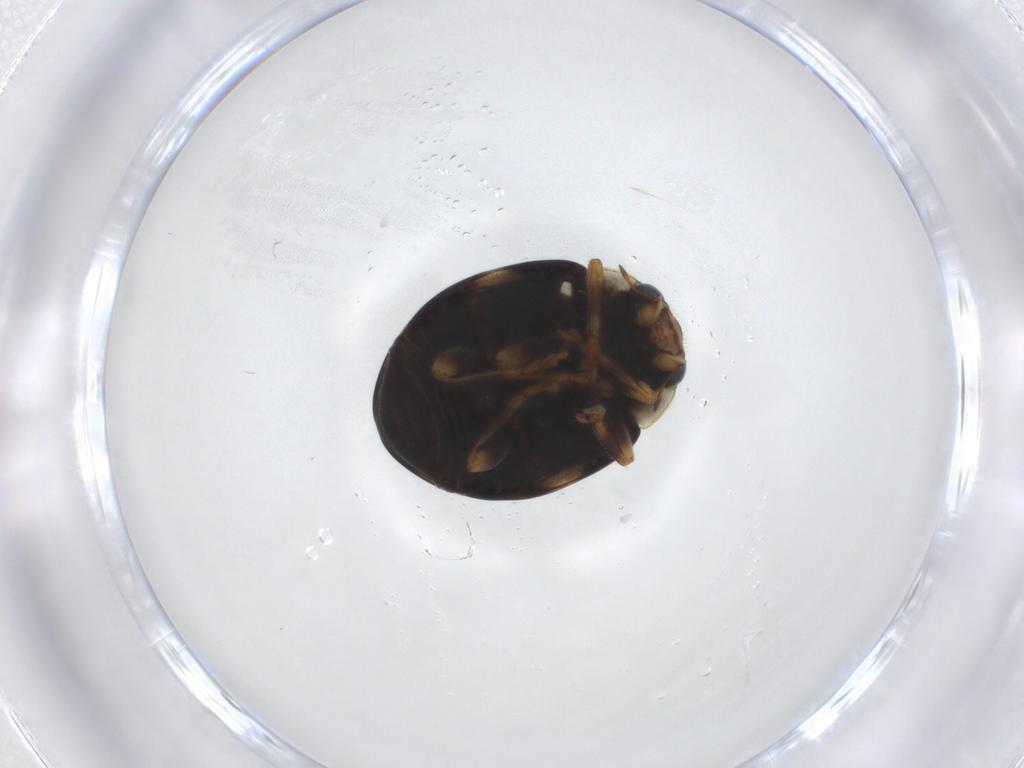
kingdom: Animalia
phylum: Arthropoda
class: Insecta
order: Coleoptera
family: Coccinellidae
